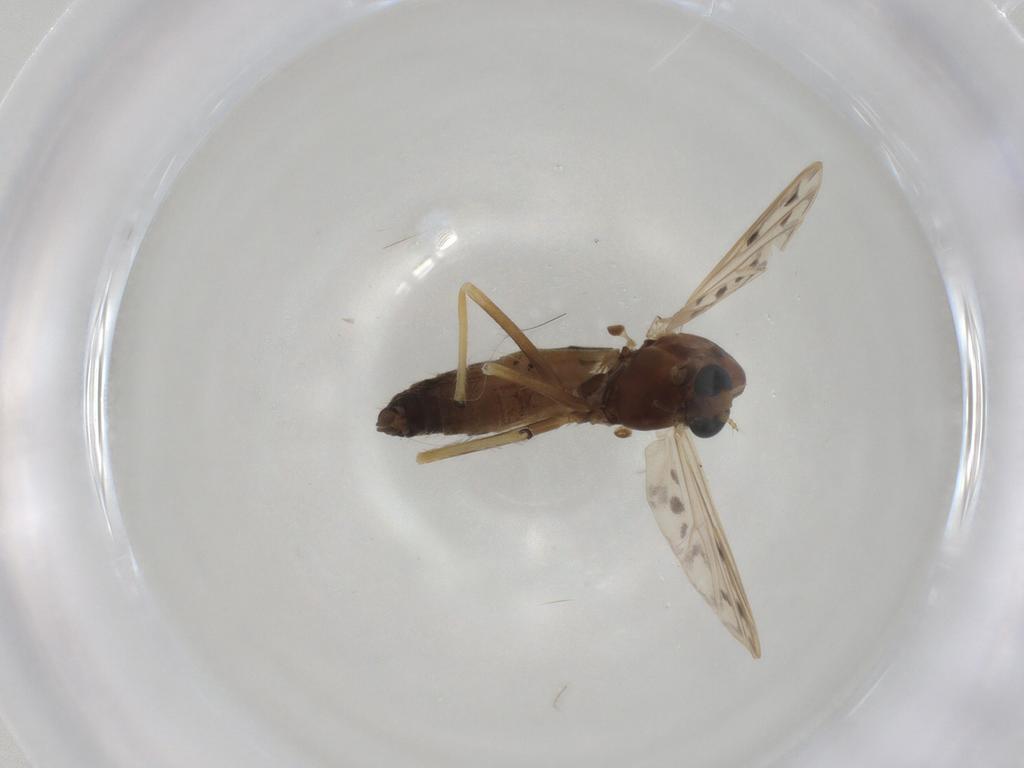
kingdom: Animalia
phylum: Arthropoda
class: Insecta
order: Diptera
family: Chironomidae
